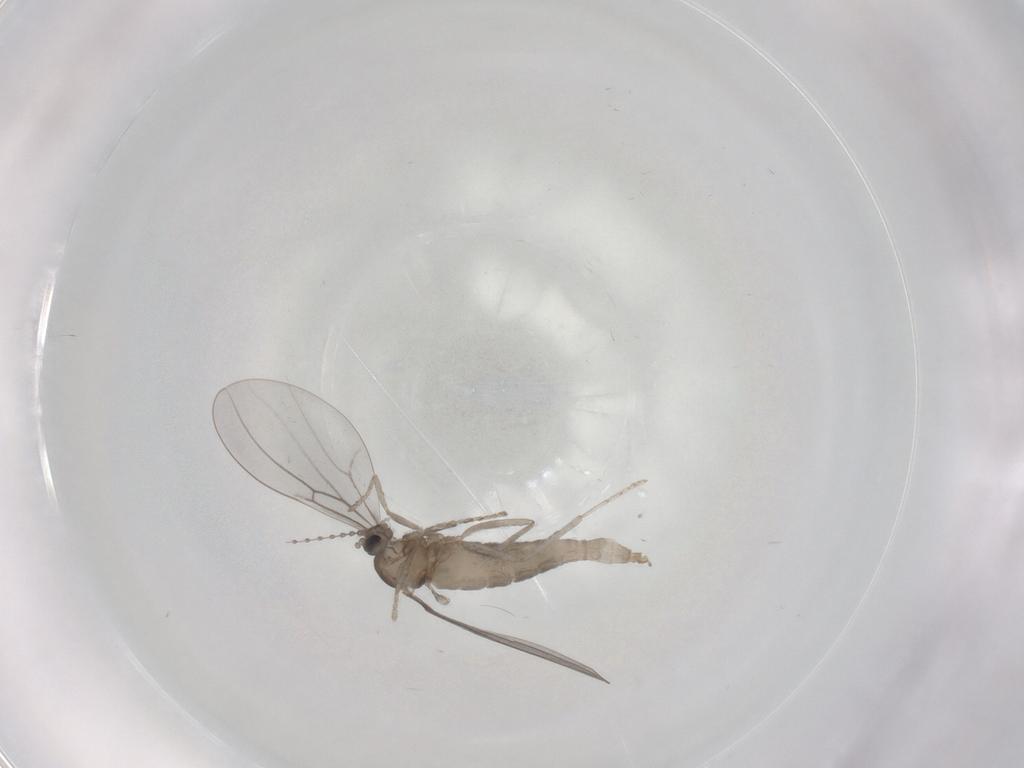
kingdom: Animalia
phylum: Arthropoda
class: Insecta
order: Diptera
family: Cecidomyiidae
